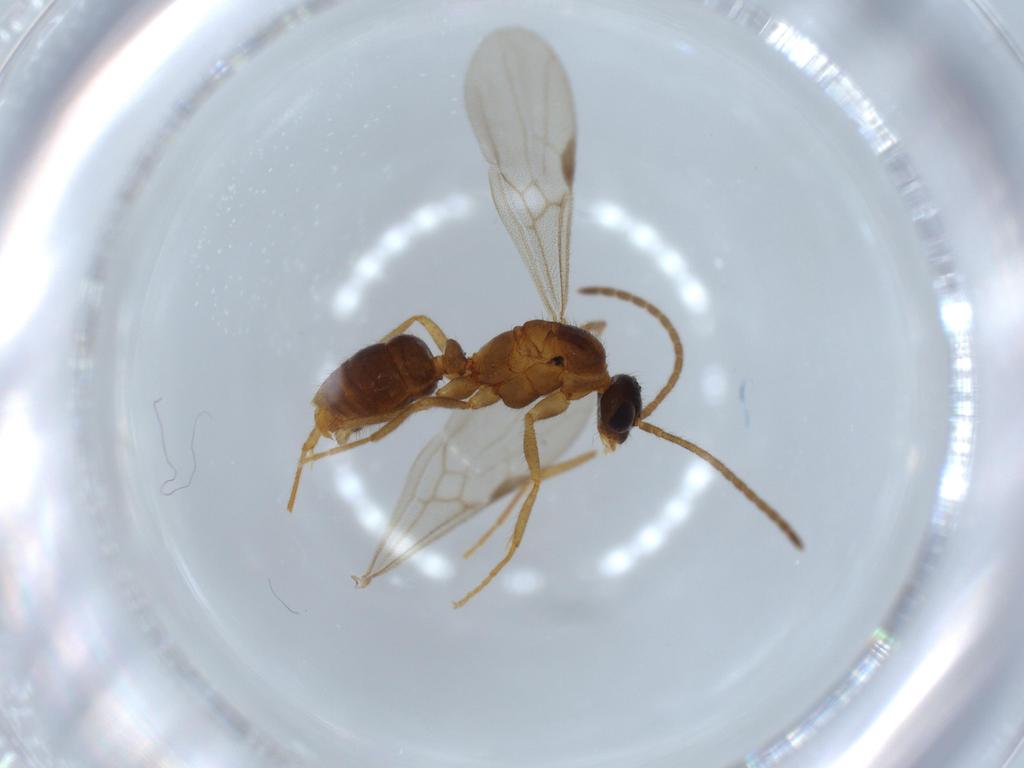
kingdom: Animalia
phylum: Arthropoda
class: Insecta
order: Hymenoptera
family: Formicidae
